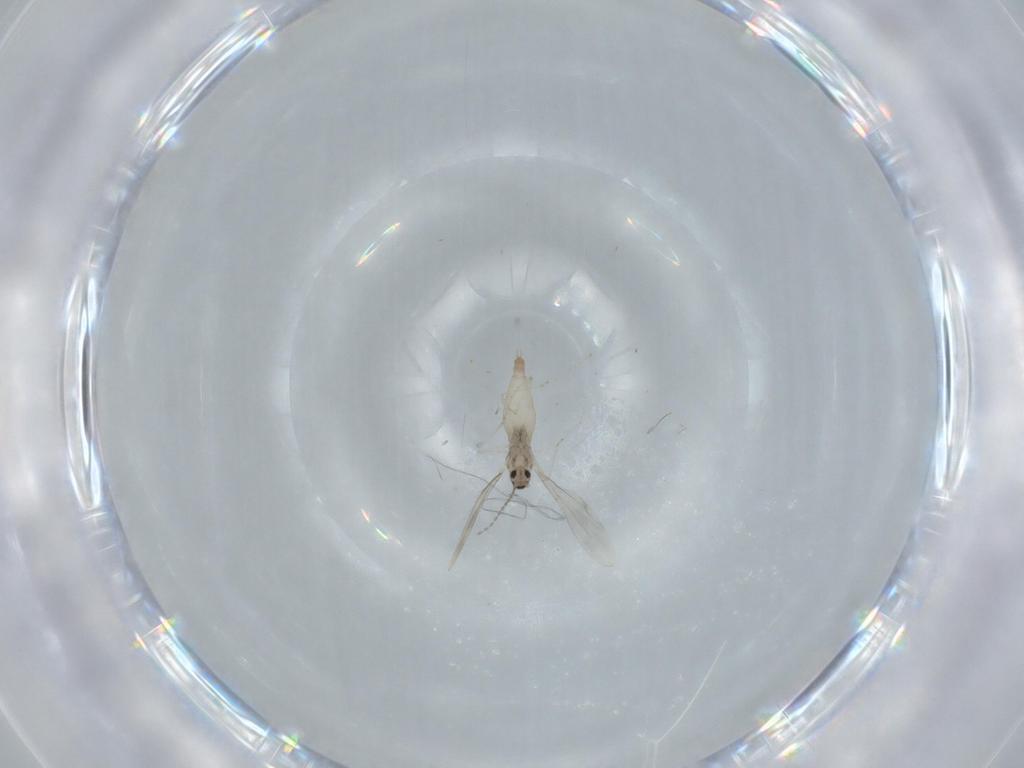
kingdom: Animalia
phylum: Arthropoda
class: Insecta
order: Diptera
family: Cecidomyiidae
